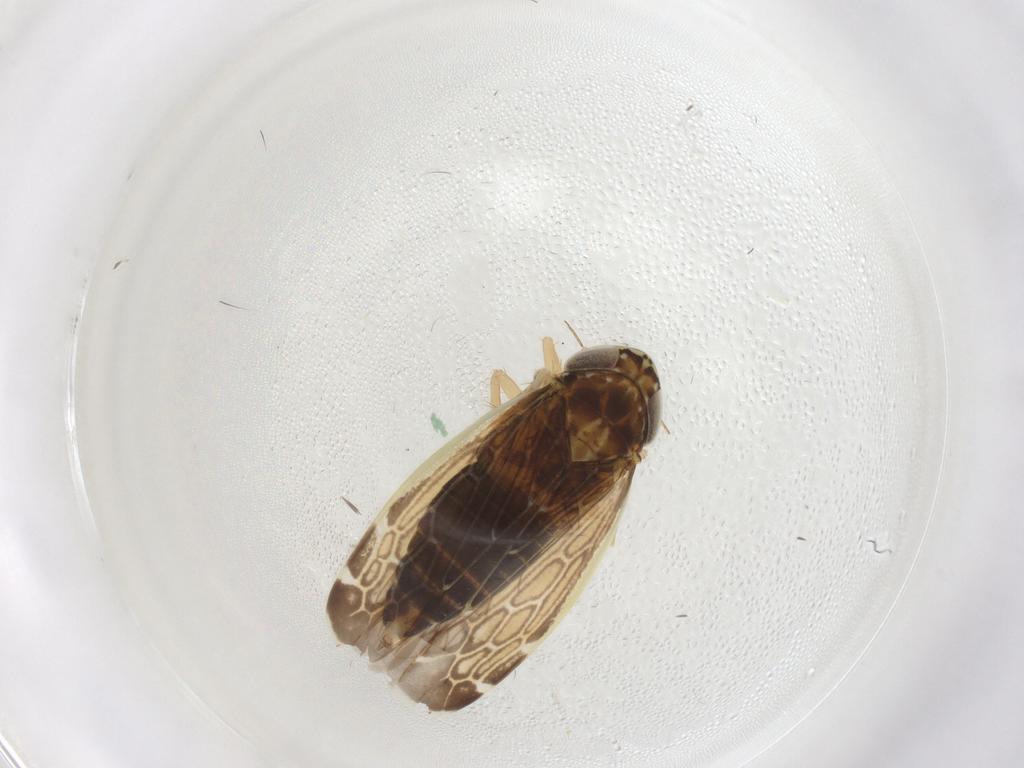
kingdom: Animalia
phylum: Arthropoda
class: Insecta
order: Hemiptera
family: Cicadellidae
